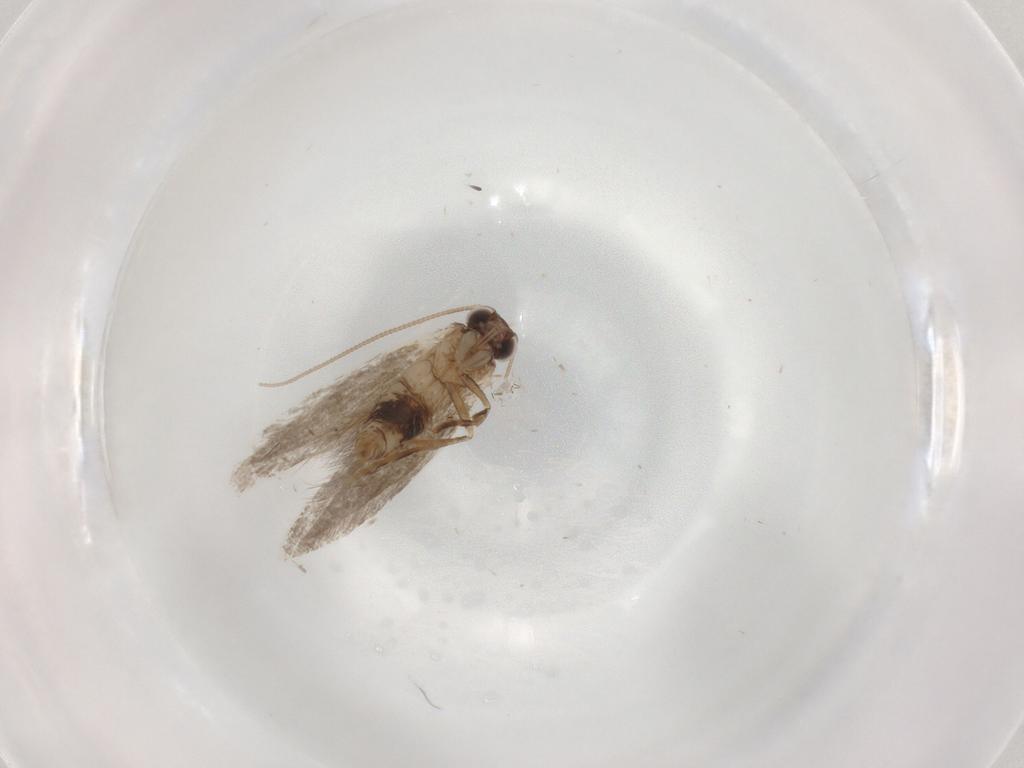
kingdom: Animalia
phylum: Arthropoda
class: Insecta
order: Lepidoptera
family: Tineidae
